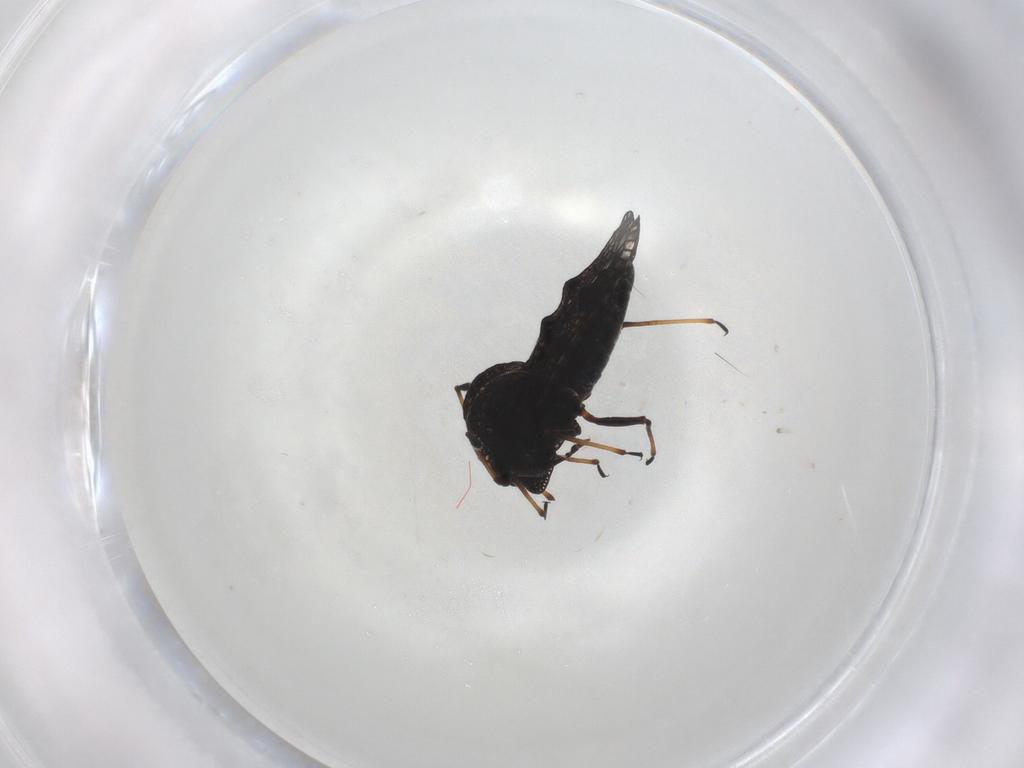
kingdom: Animalia
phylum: Arthropoda
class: Insecta
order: Hemiptera
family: Tingidae
